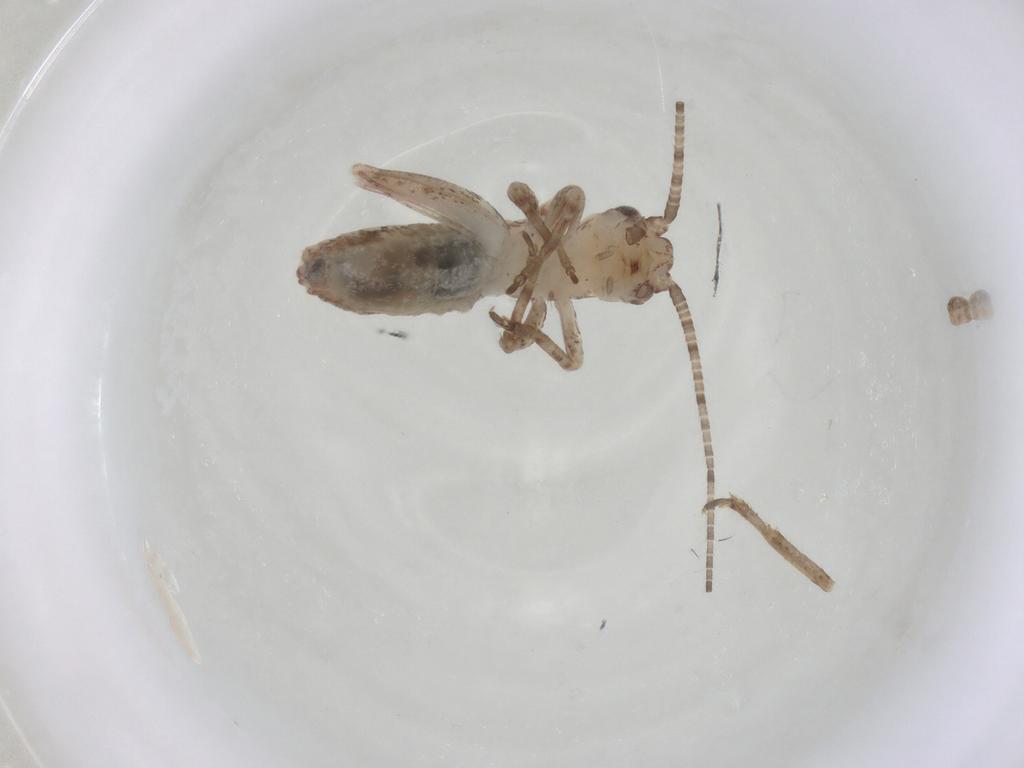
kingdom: Animalia
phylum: Arthropoda
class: Insecta
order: Orthoptera
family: Mogoplistidae
